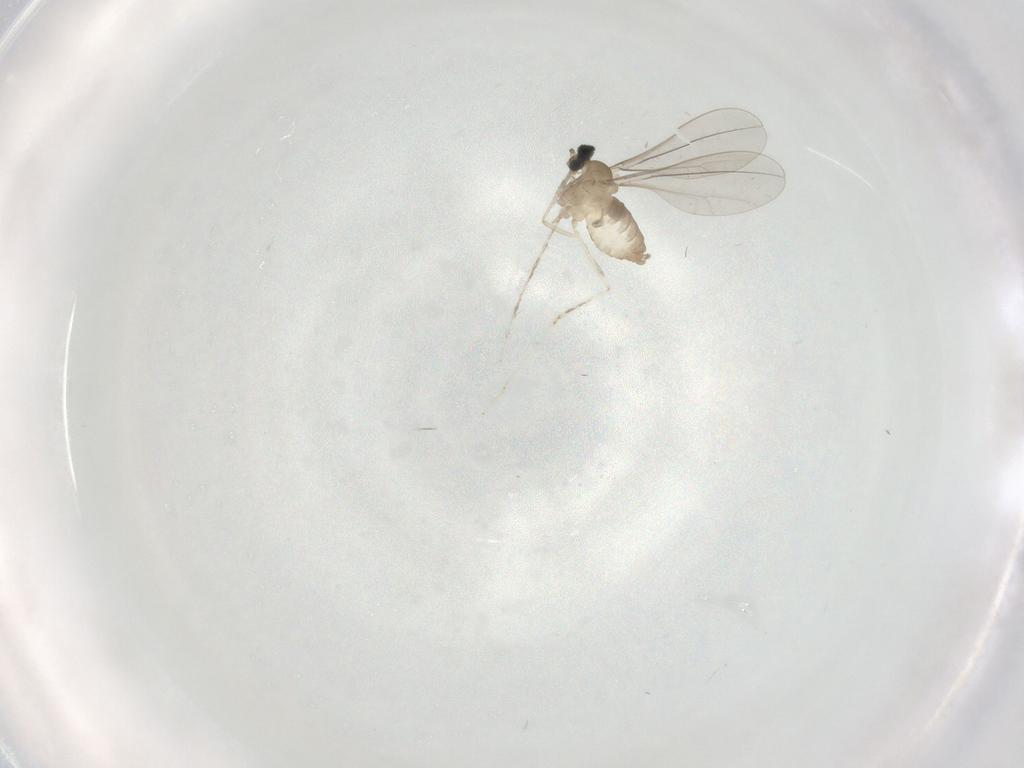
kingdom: Animalia
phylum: Arthropoda
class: Insecta
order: Diptera
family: Cecidomyiidae
